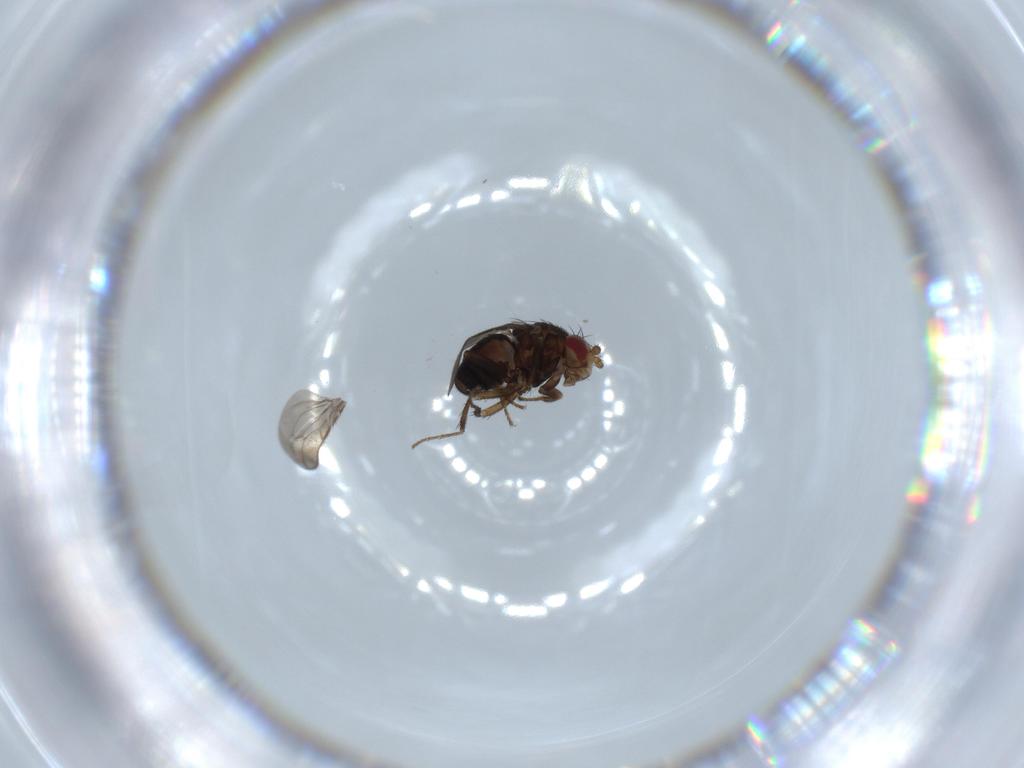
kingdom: Animalia
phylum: Arthropoda
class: Insecta
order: Diptera
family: Sphaeroceridae
